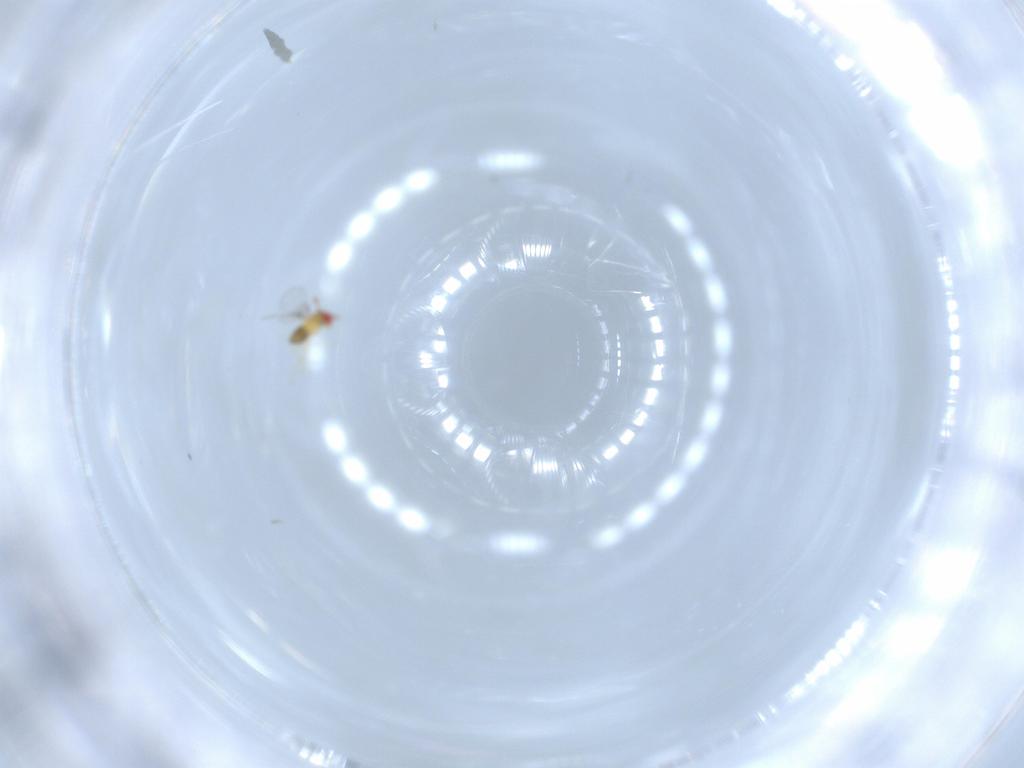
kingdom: Animalia
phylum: Arthropoda
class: Insecta
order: Hymenoptera
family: Trichogrammatidae
